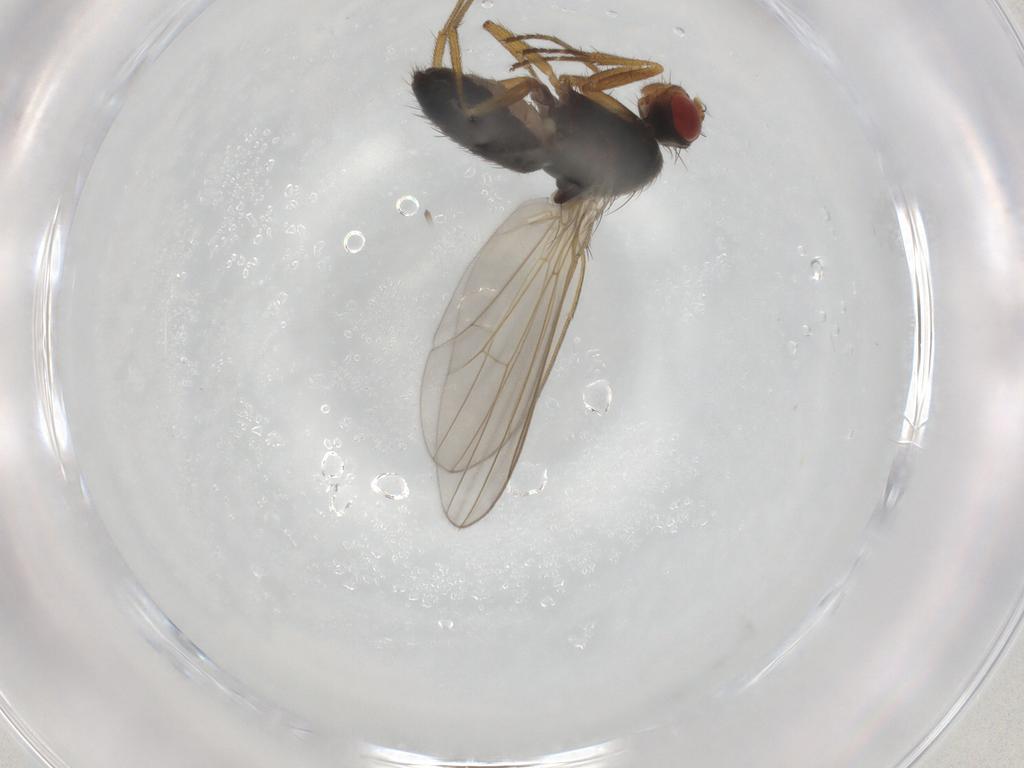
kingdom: Animalia
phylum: Arthropoda
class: Insecta
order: Diptera
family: Drosophilidae
